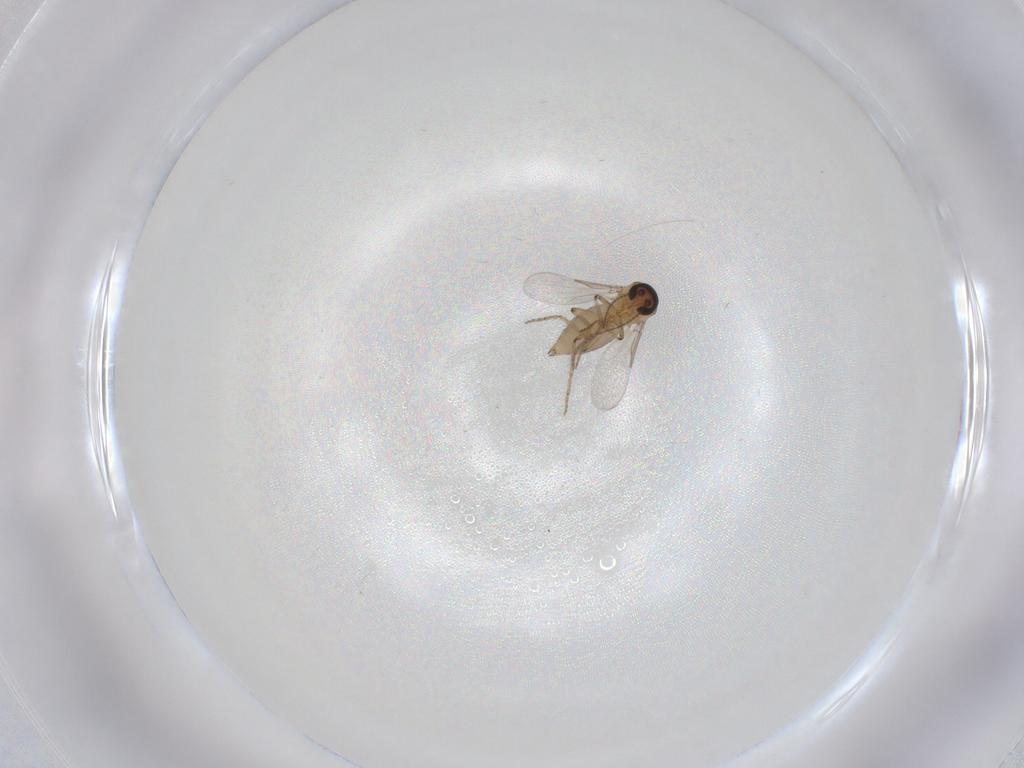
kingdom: Animalia
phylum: Arthropoda
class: Insecta
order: Diptera
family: Ceratopogonidae
